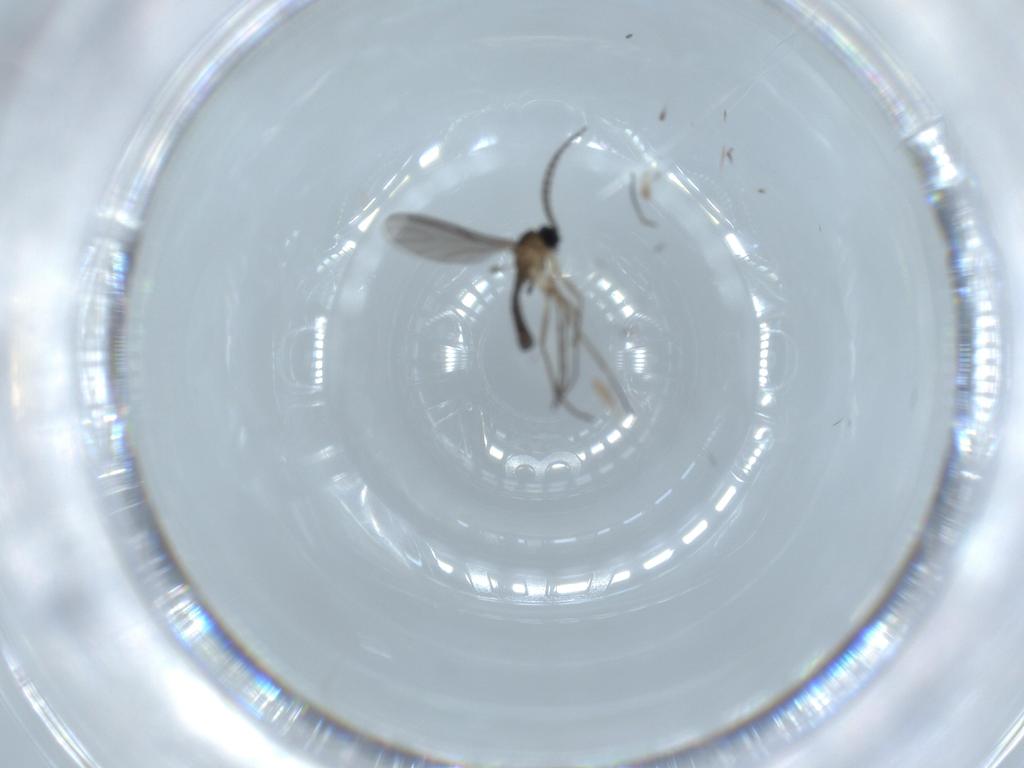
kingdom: Animalia
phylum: Arthropoda
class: Insecta
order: Diptera
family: Sciaridae
